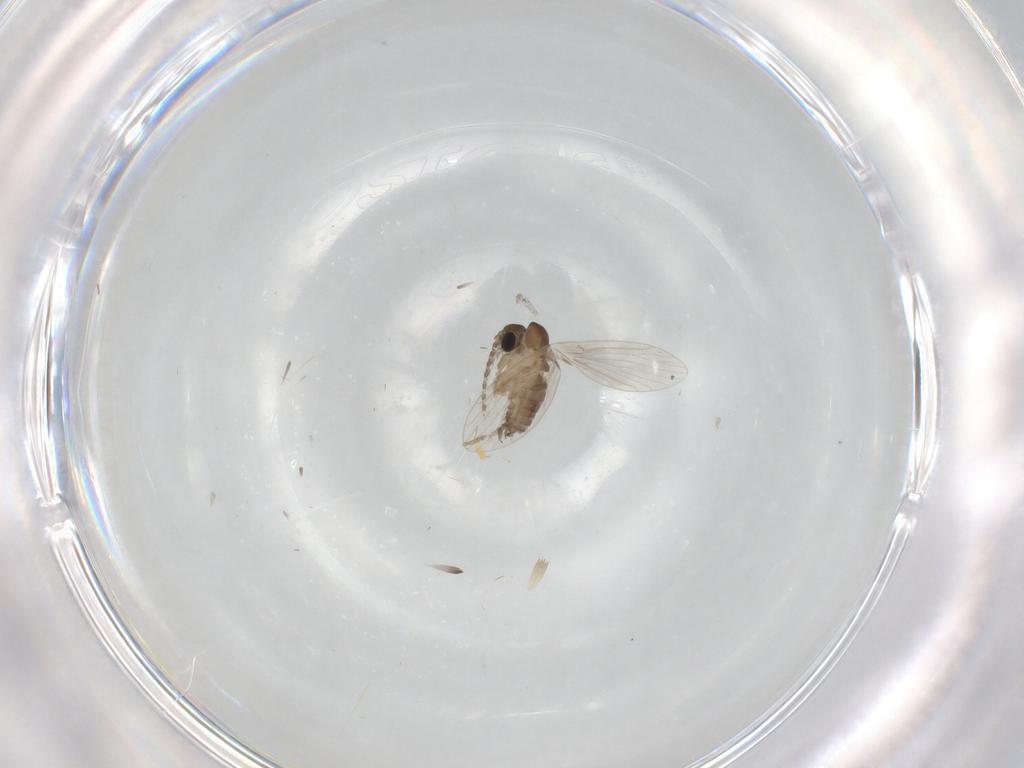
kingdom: Animalia
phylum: Arthropoda
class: Insecta
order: Diptera
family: Psychodidae
